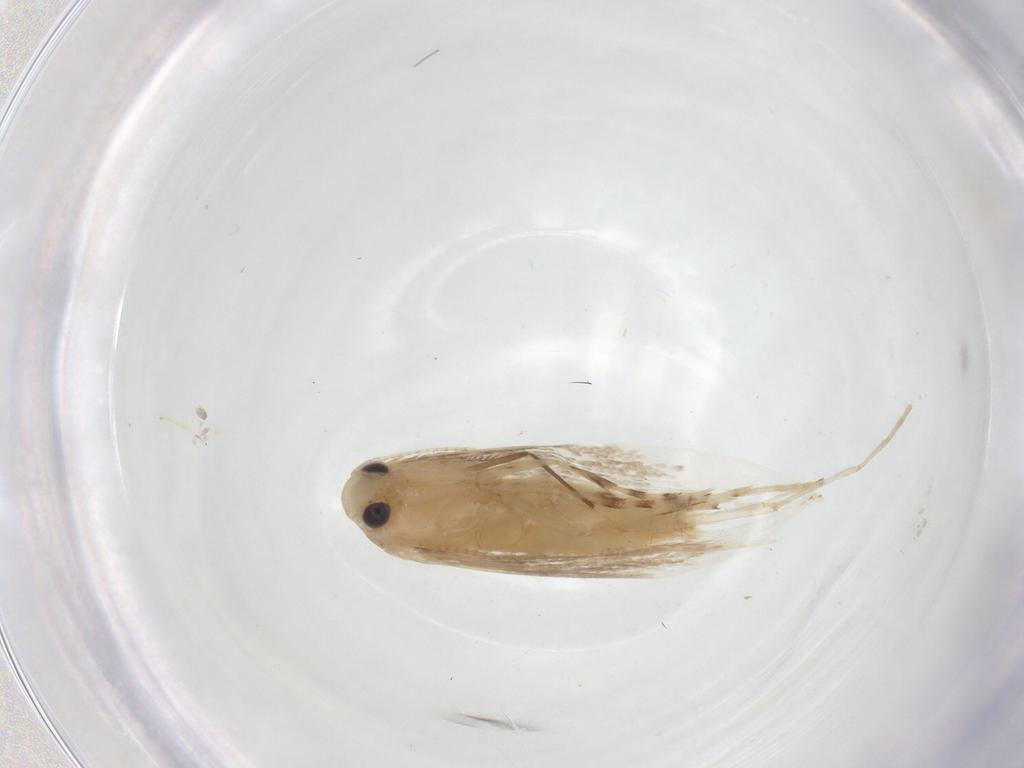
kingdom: Animalia
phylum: Arthropoda
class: Insecta
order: Lepidoptera
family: Gracillariidae
